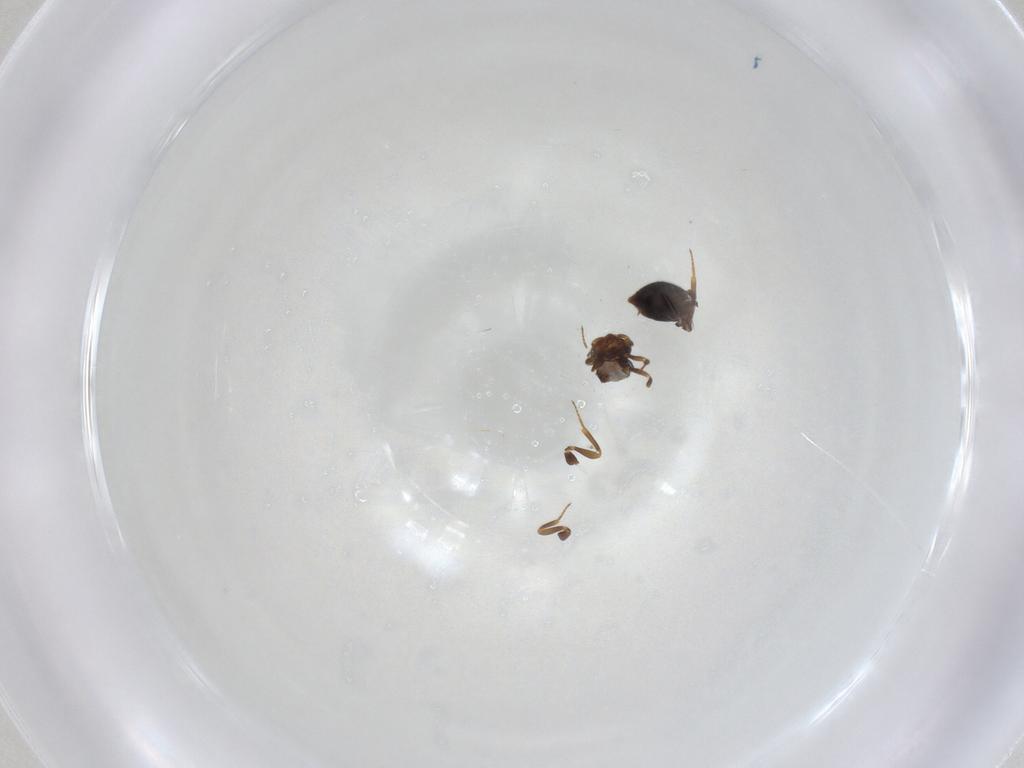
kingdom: Animalia
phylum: Arthropoda
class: Insecta
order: Hymenoptera
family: Scelionidae
